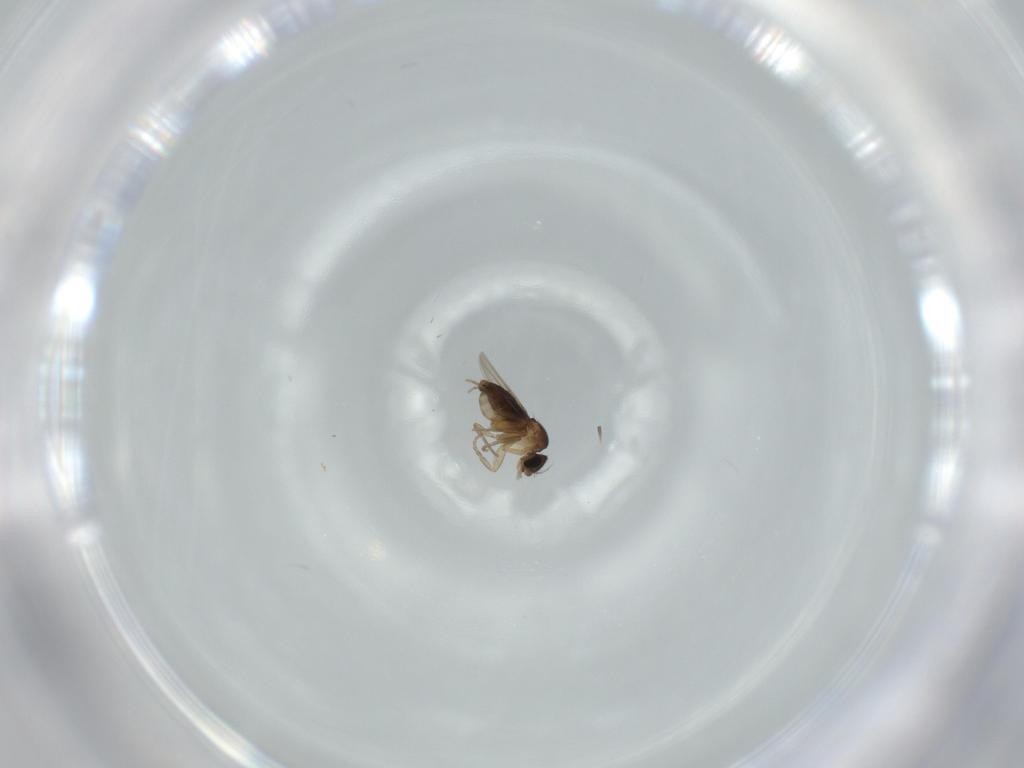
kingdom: Animalia
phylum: Arthropoda
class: Insecta
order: Diptera
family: Phoridae
